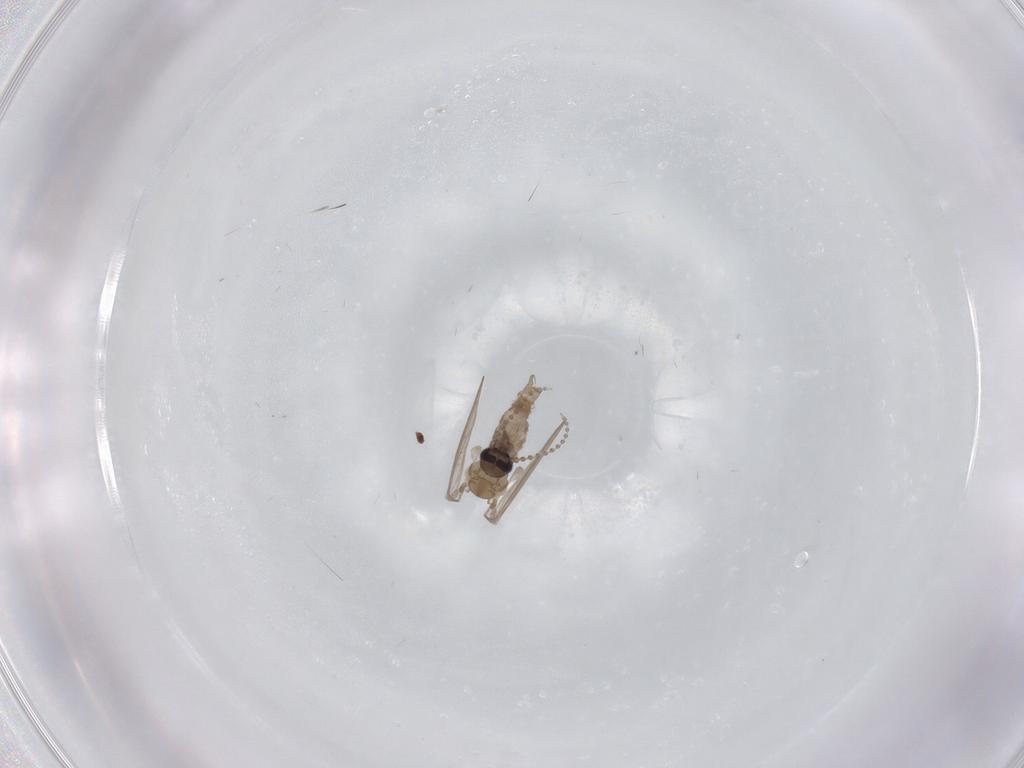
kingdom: Animalia
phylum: Arthropoda
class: Insecta
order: Diptera
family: Psychodidae
